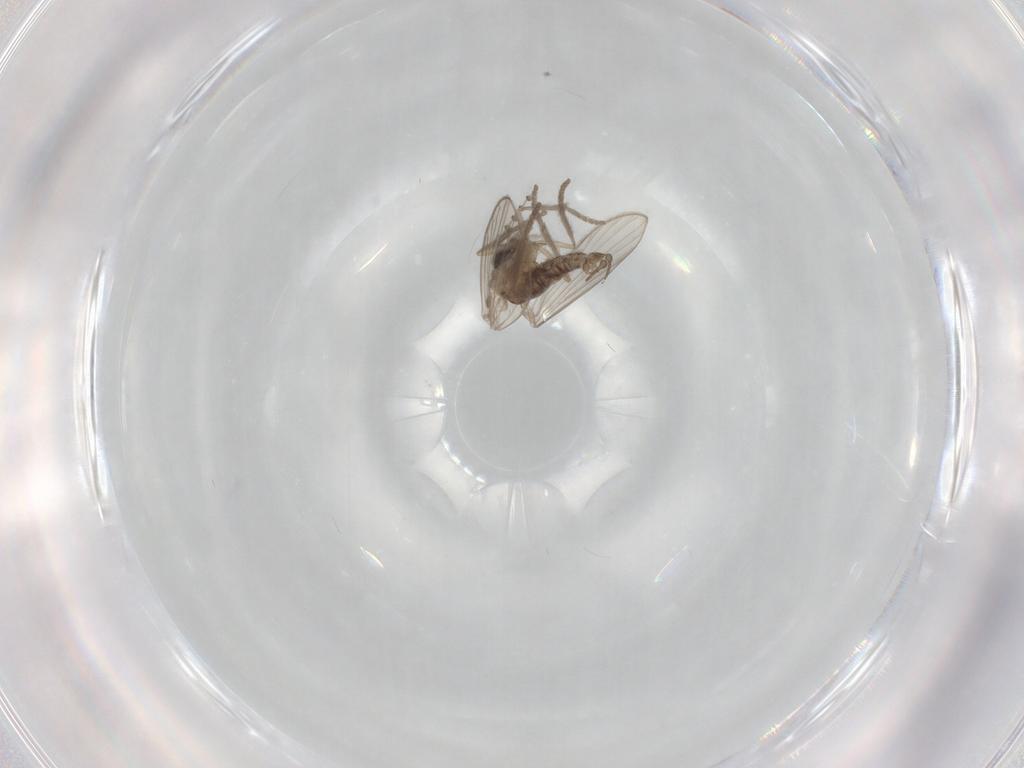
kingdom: Animalia
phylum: Arthropoda
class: Insecta
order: Diptera
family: Psychodidae
